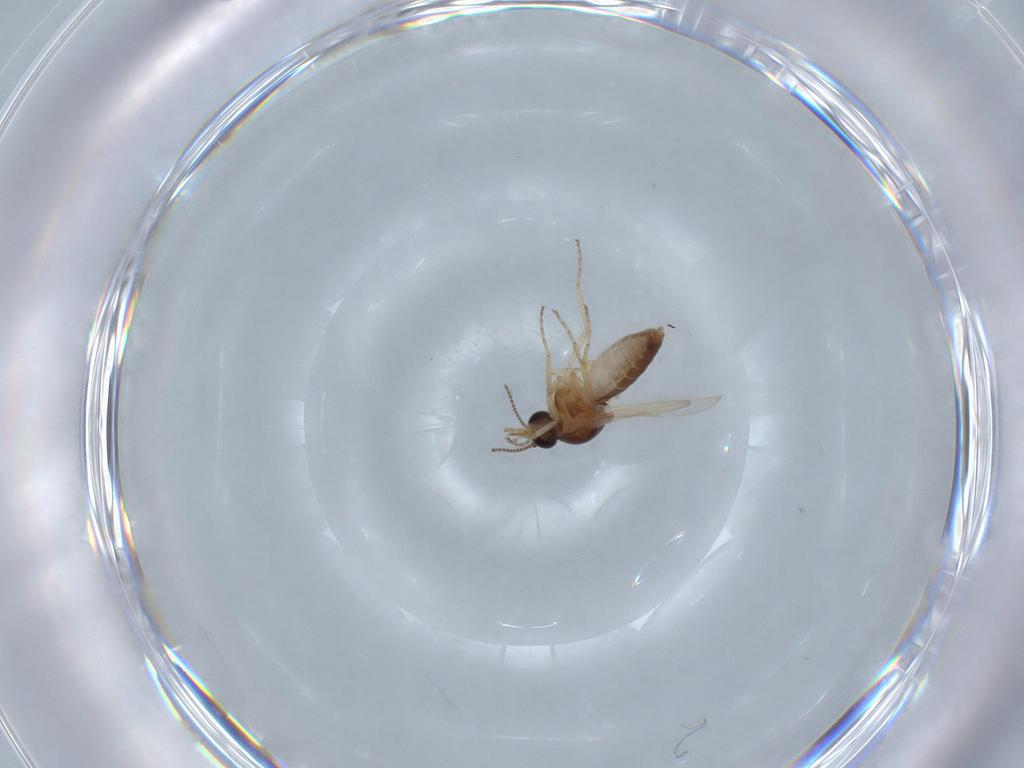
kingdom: Animalia
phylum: Arthropoda
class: Insecta
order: Diptera
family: Ceratopogonidae
